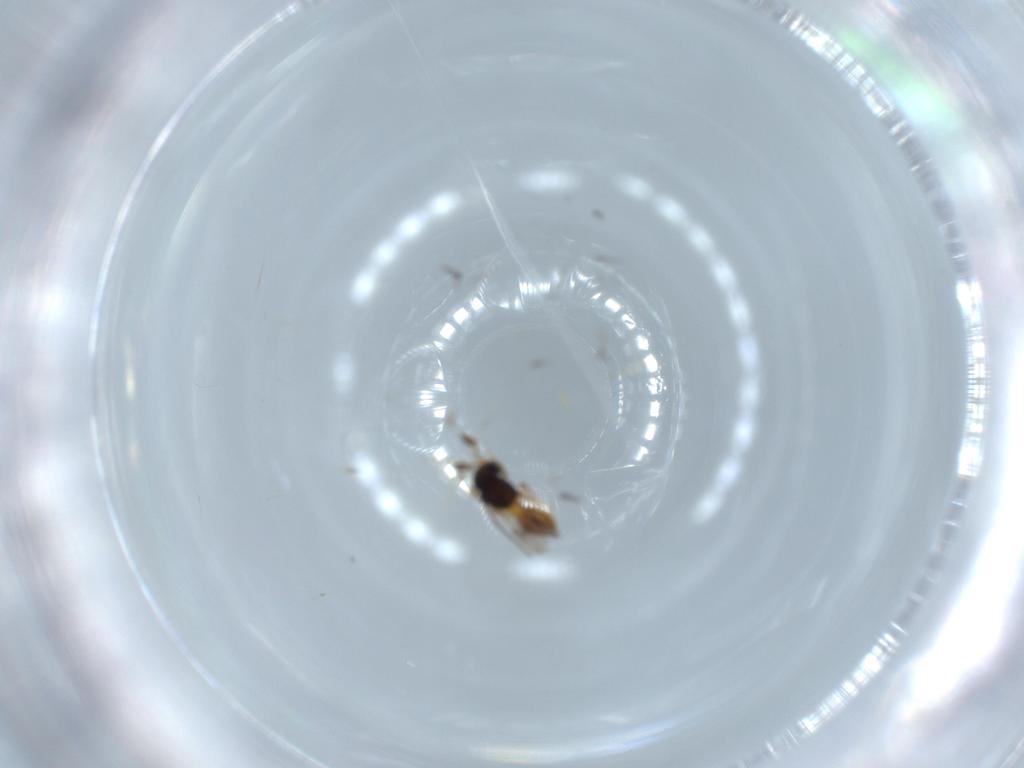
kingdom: Animalia
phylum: Arthropoda
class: Insecta
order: Hymenoptera
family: Scelionidae
